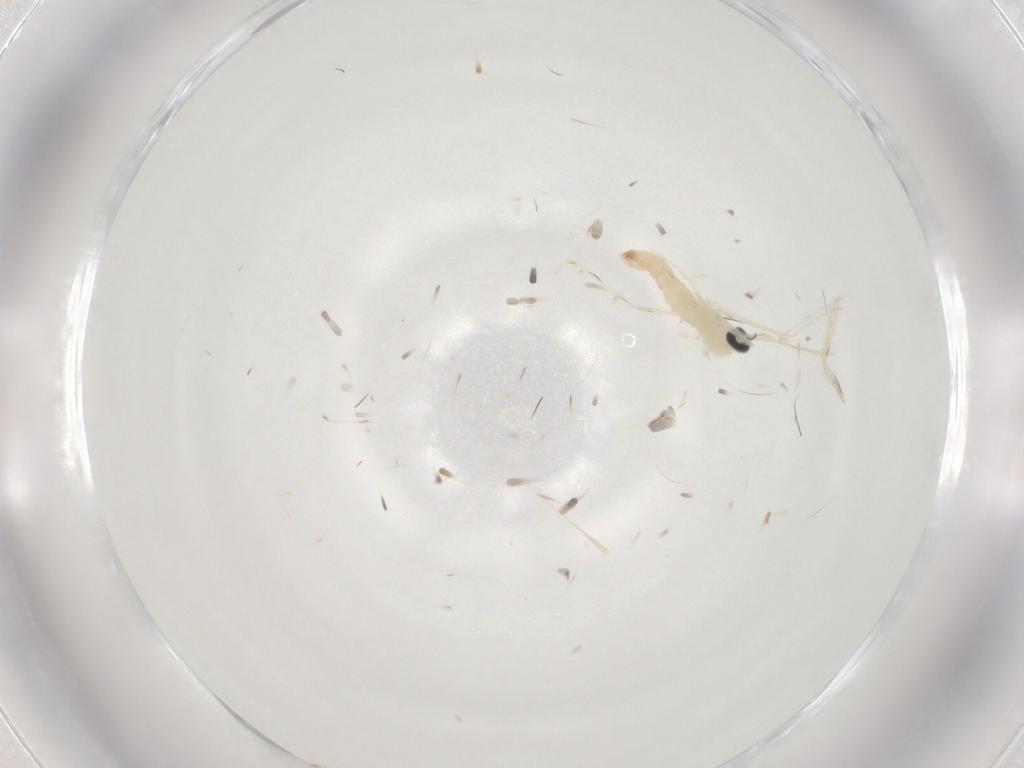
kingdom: Animalia
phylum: Arthropoda
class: Insecta
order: Diptera
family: Cecidomyiidae
